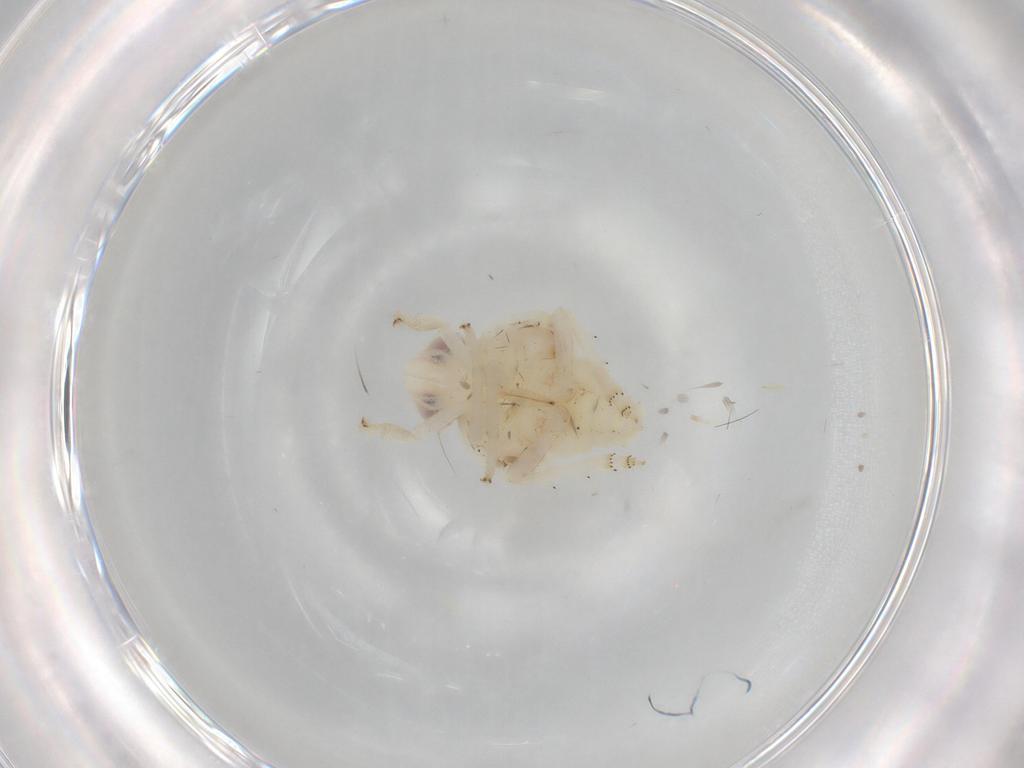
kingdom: Animalia
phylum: Arthropoda
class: Insecta
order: Hemiptera
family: Nogodinidae
